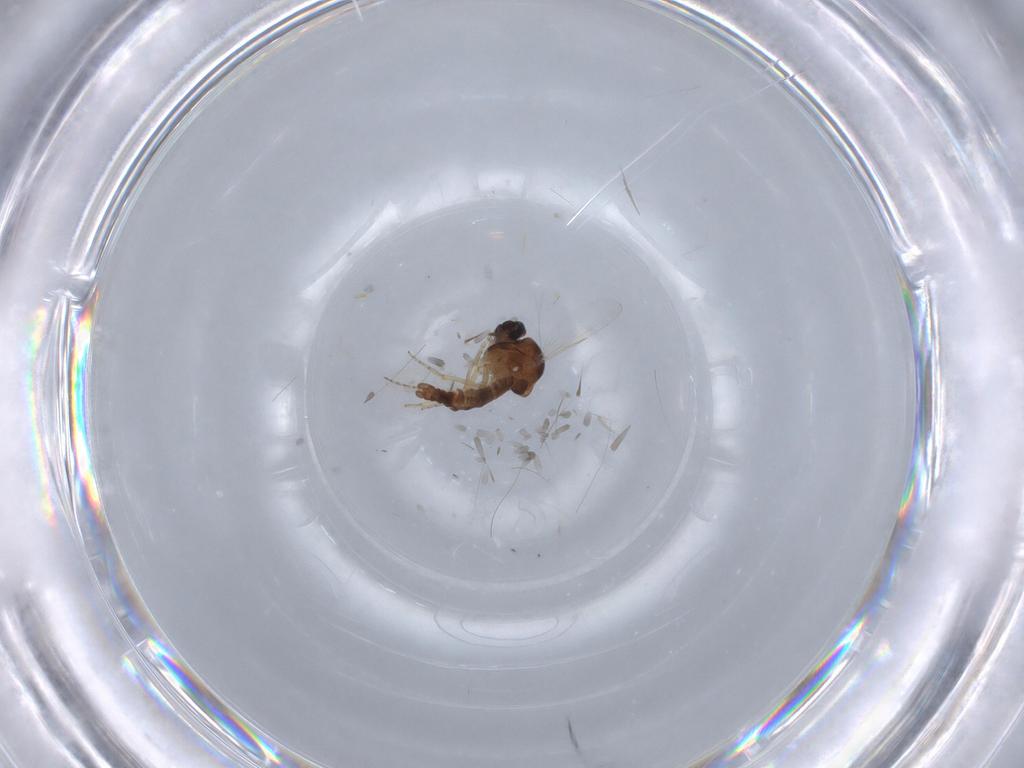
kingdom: Animalia
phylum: Arthropoda
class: Insecta
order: Diptera
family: Ceratopogonidae
